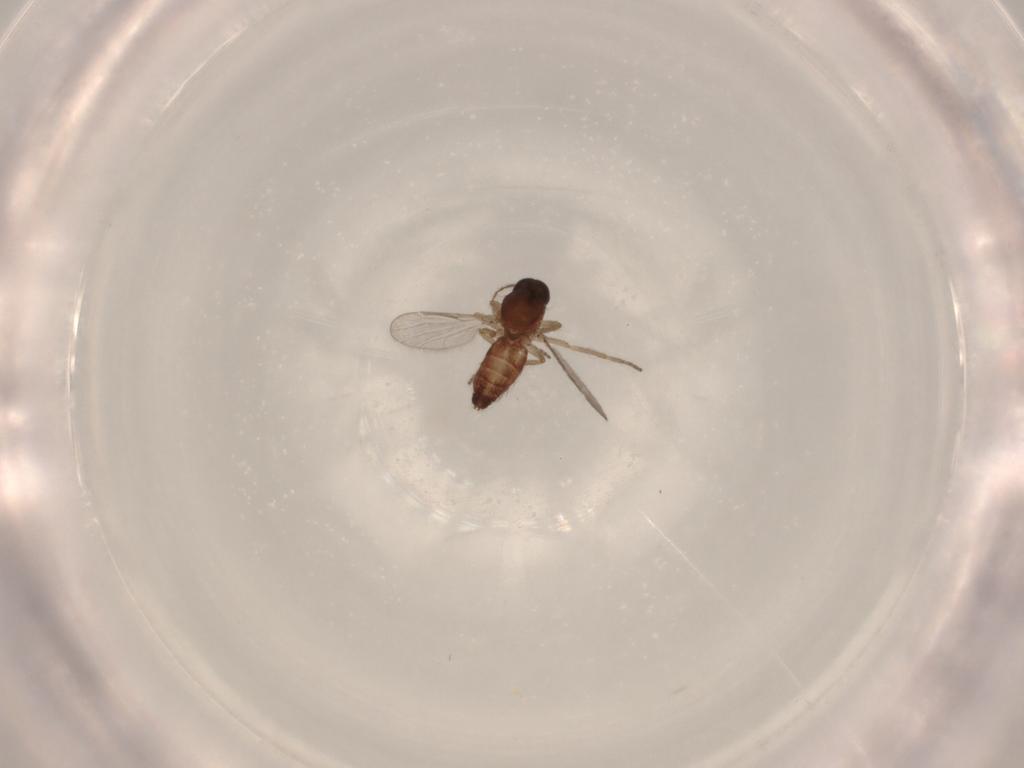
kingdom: Animalia
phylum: Arthropoda
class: Insecta
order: Diptera
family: Ceratopogonidae
